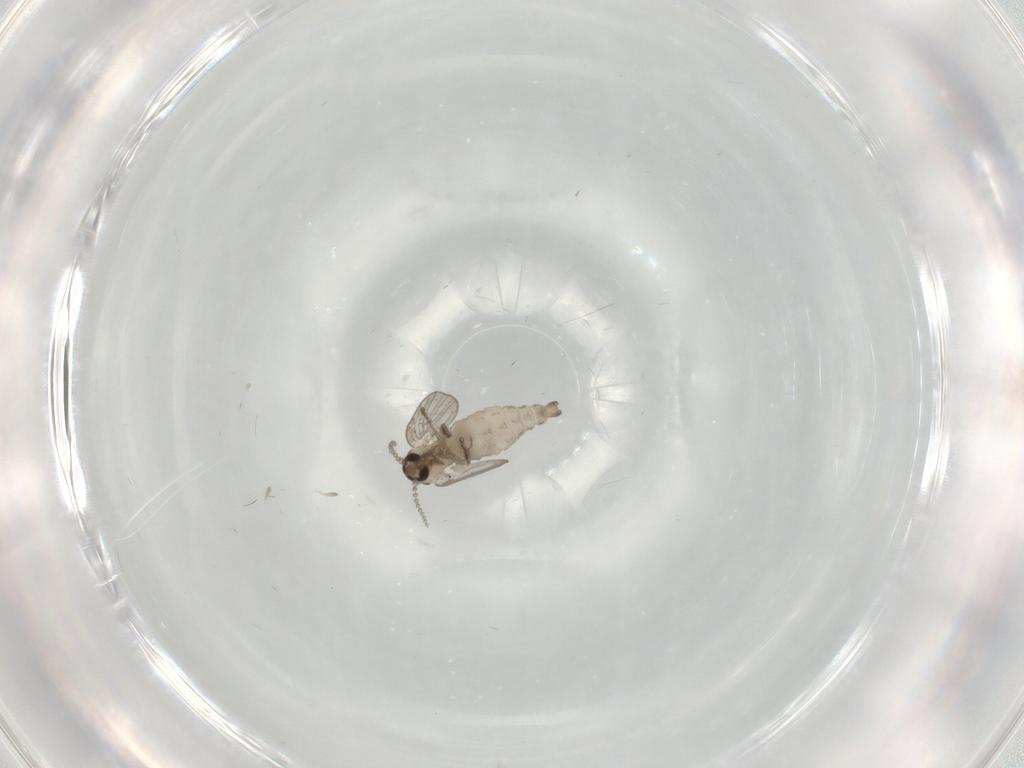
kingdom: Animalia
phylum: Arthropoda
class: Insecta
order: Diptera
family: Psychodidae
